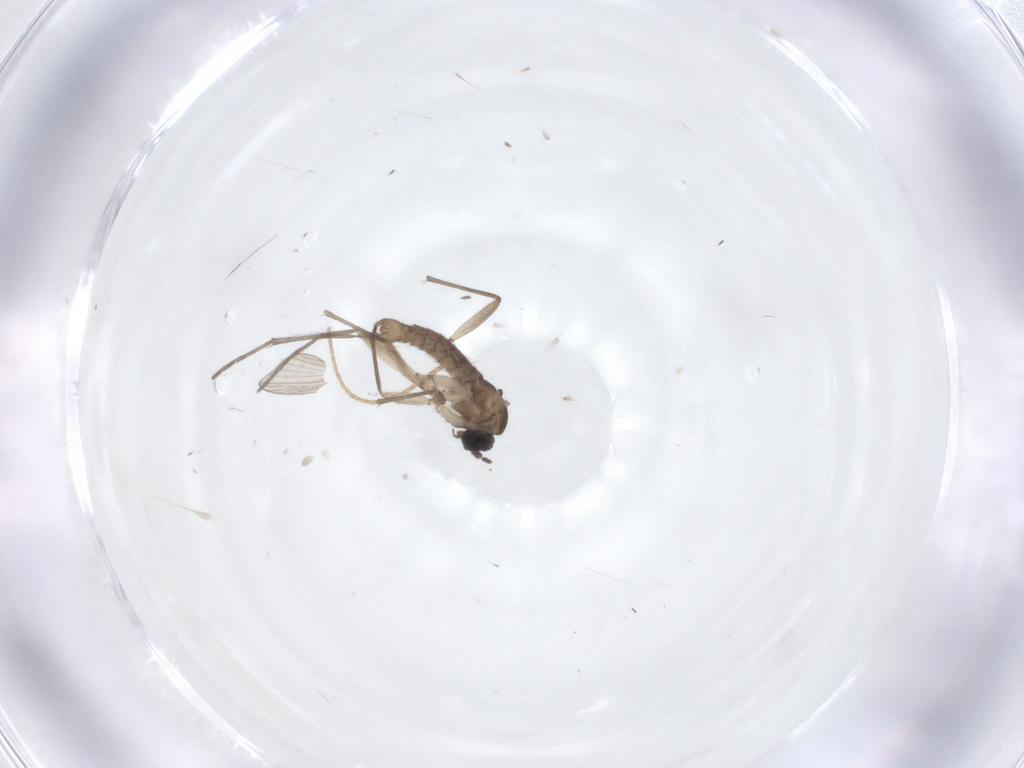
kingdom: Animalia
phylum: Arthropoda
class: Insecta
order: Diptera
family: Sciaridae
